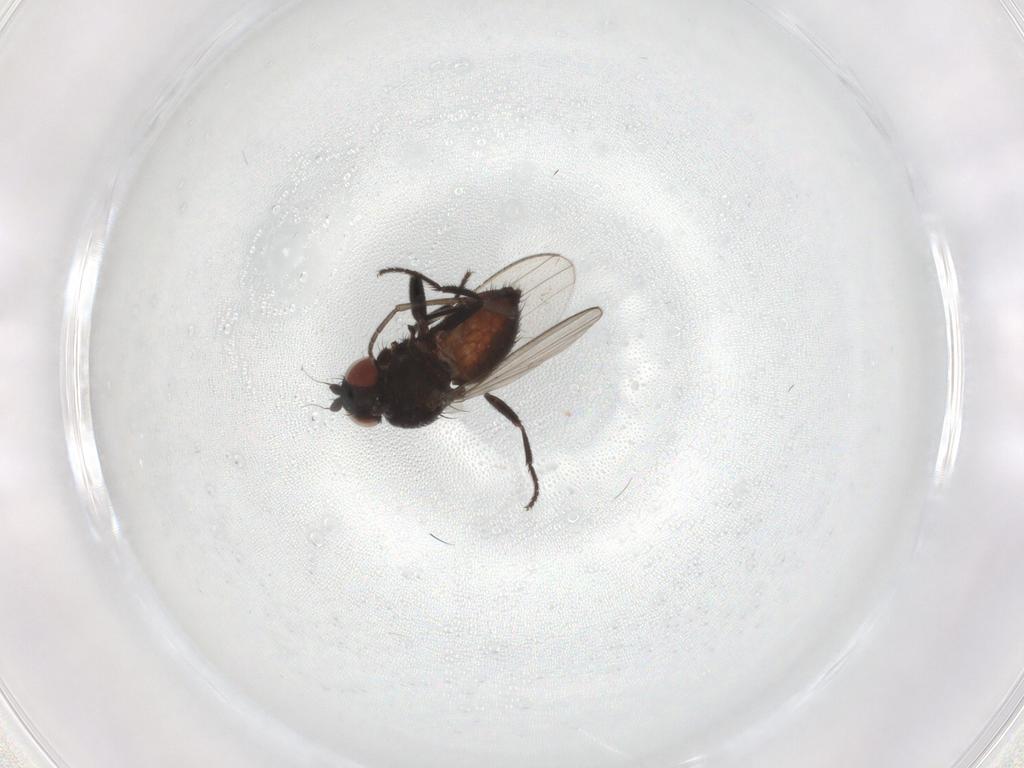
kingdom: Animalia
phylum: Arthropoda
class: Insecta
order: Diptera
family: Milichiidae
